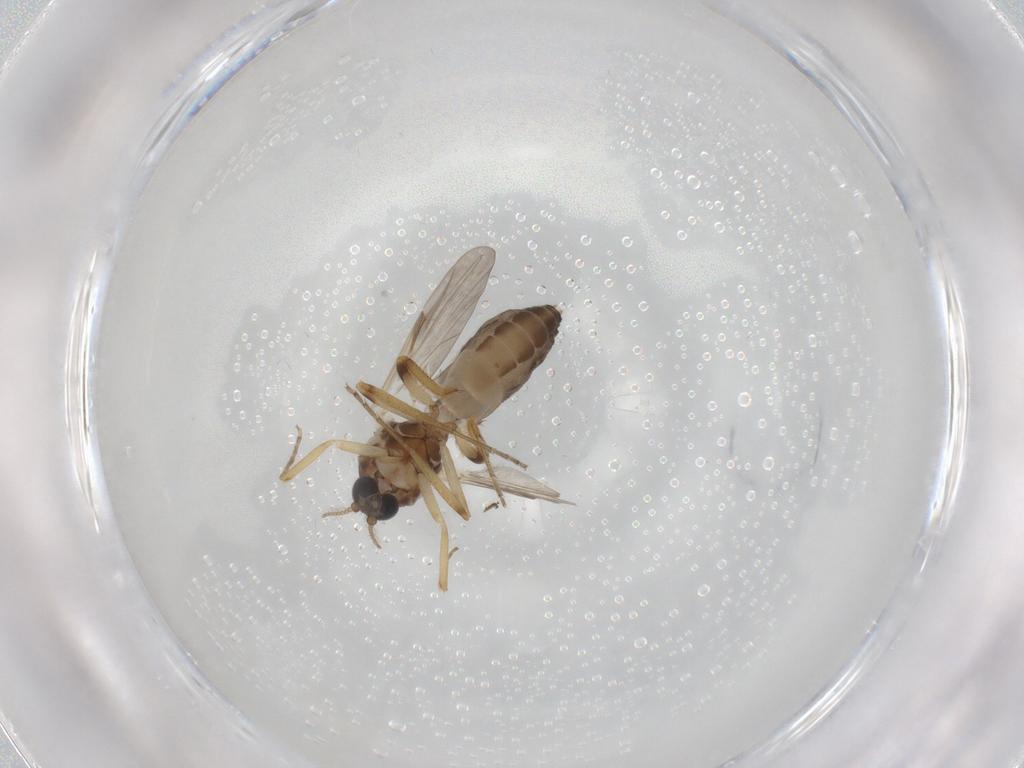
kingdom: Animalia
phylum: Arthropoda
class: Insecta
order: Diptera
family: Ceratopogonidae
